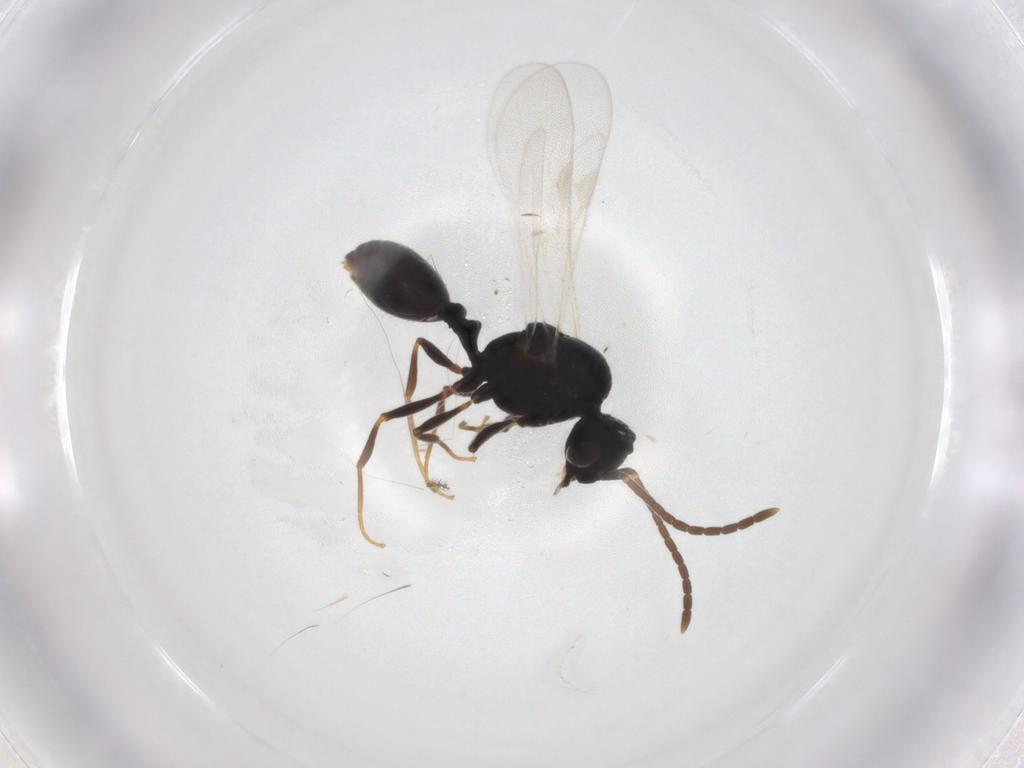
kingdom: Animalia
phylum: Arthropoda
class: Insecta
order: Hymenoptera
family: Formicidae
